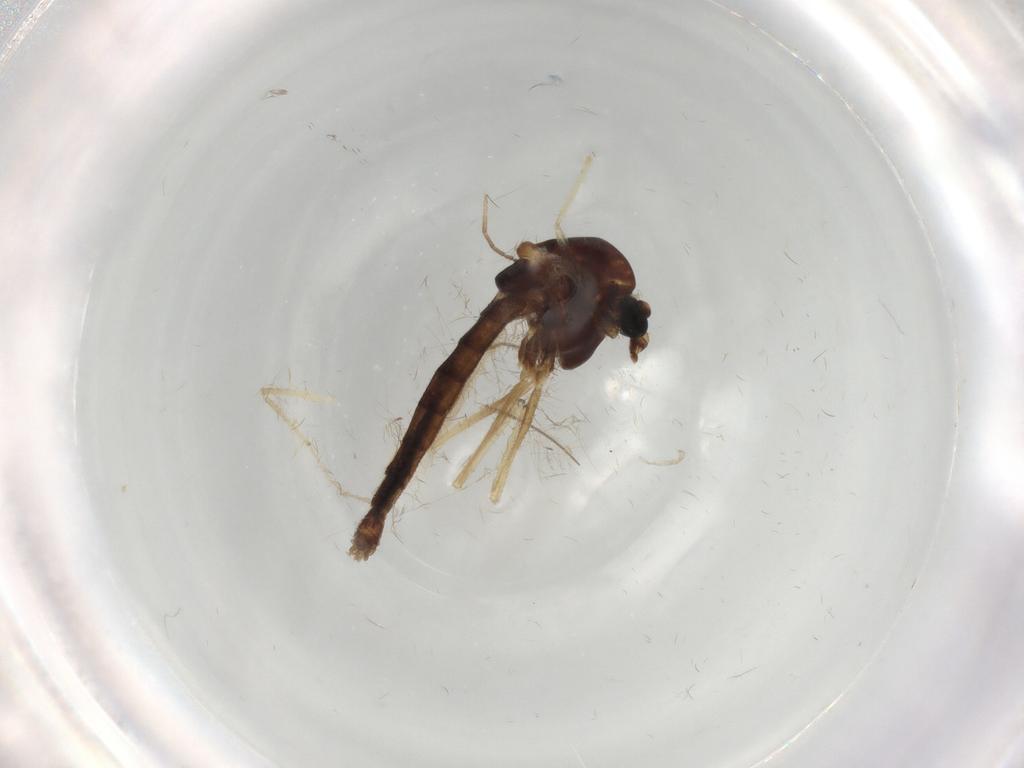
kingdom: Animalia
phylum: Arthropoda
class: Insecta
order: Diptera
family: Chironomidae
